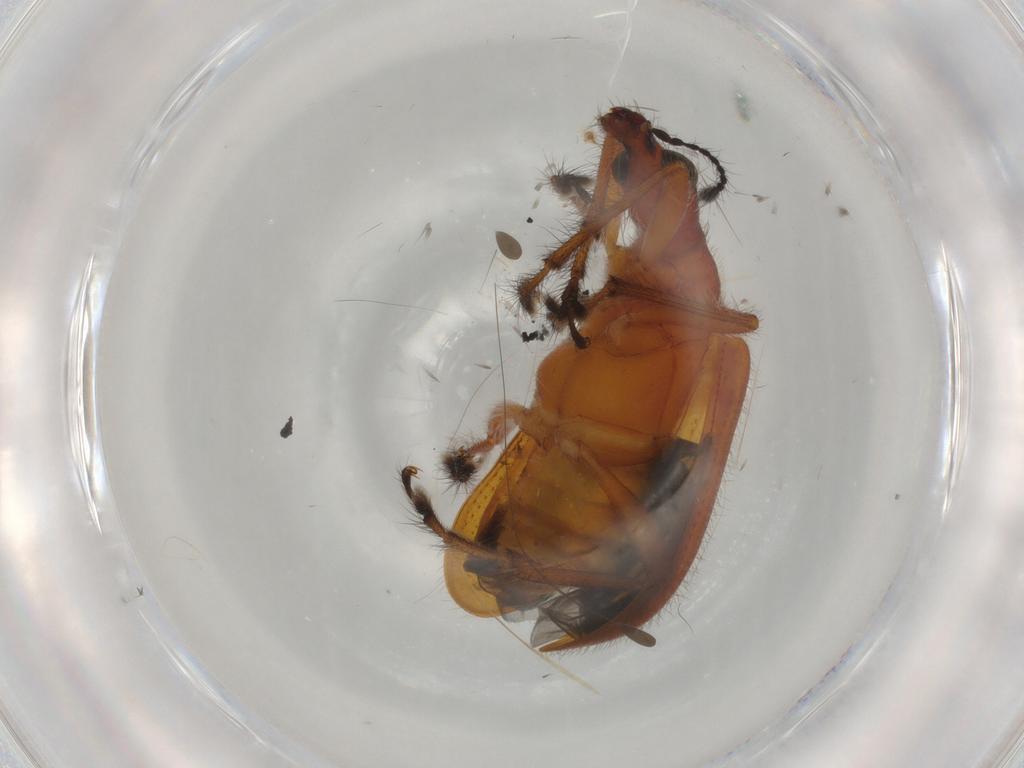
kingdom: Animalia
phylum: Arthropoda
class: Insecta
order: Coleoptera
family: Attelabidae
